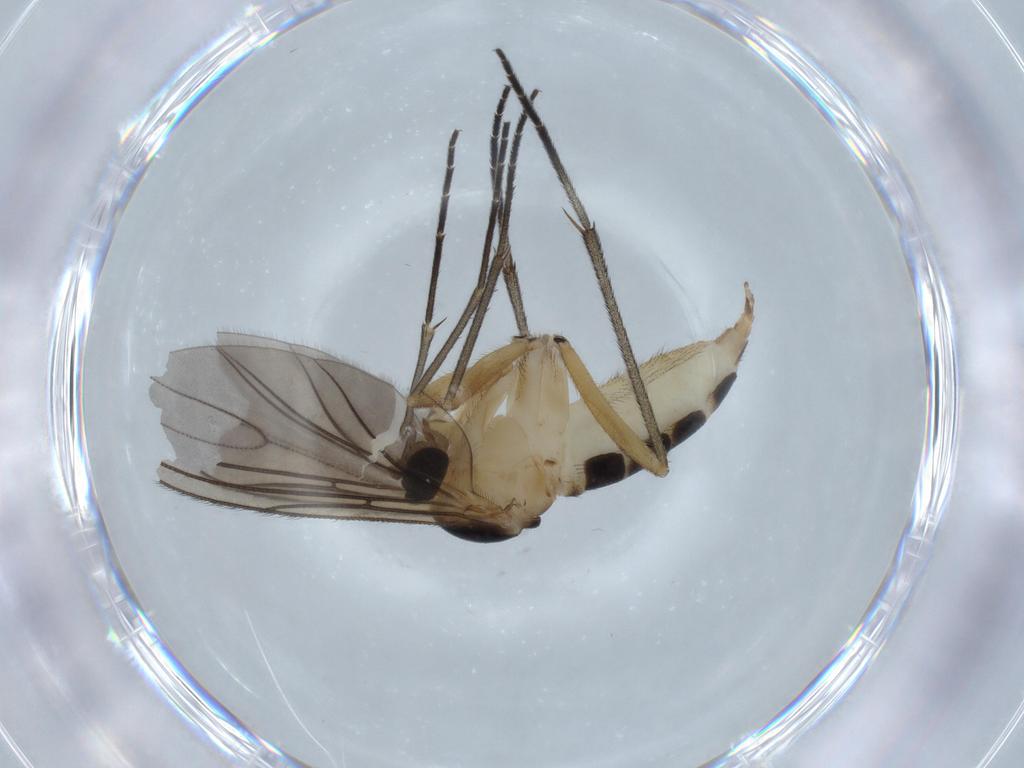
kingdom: Animalia
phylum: Arthropoda
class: Insecta
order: Diptera
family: Sciaridae
